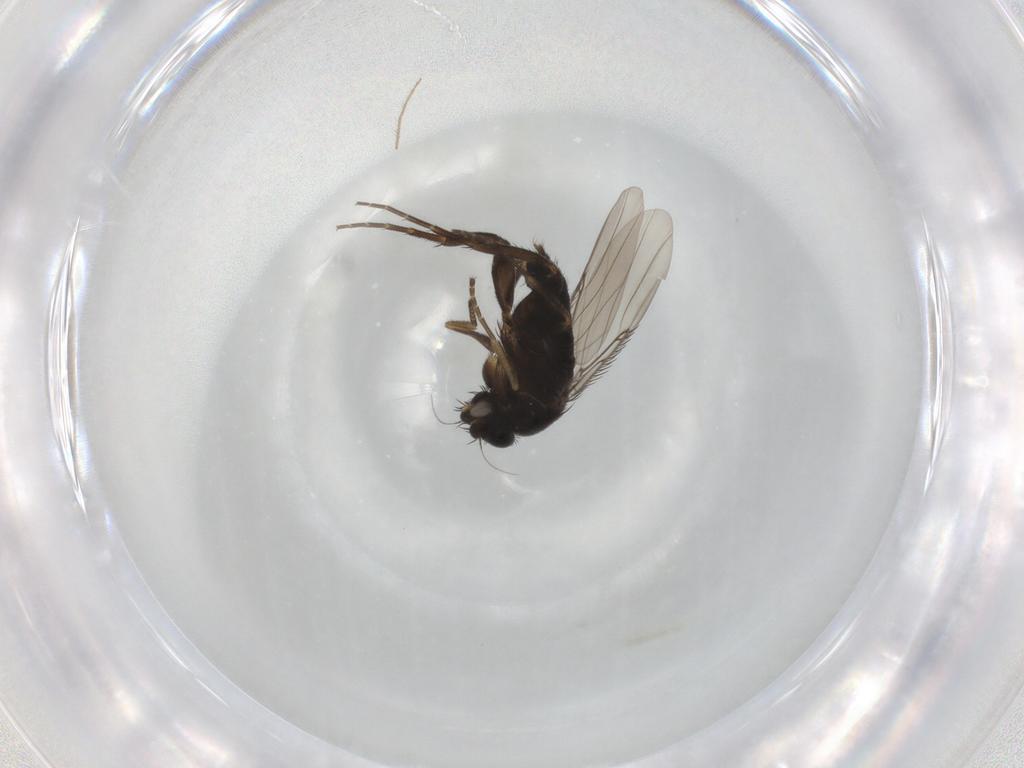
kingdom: Animalia
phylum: Arthropoda
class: Insecta
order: Diptera
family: Phoridae
